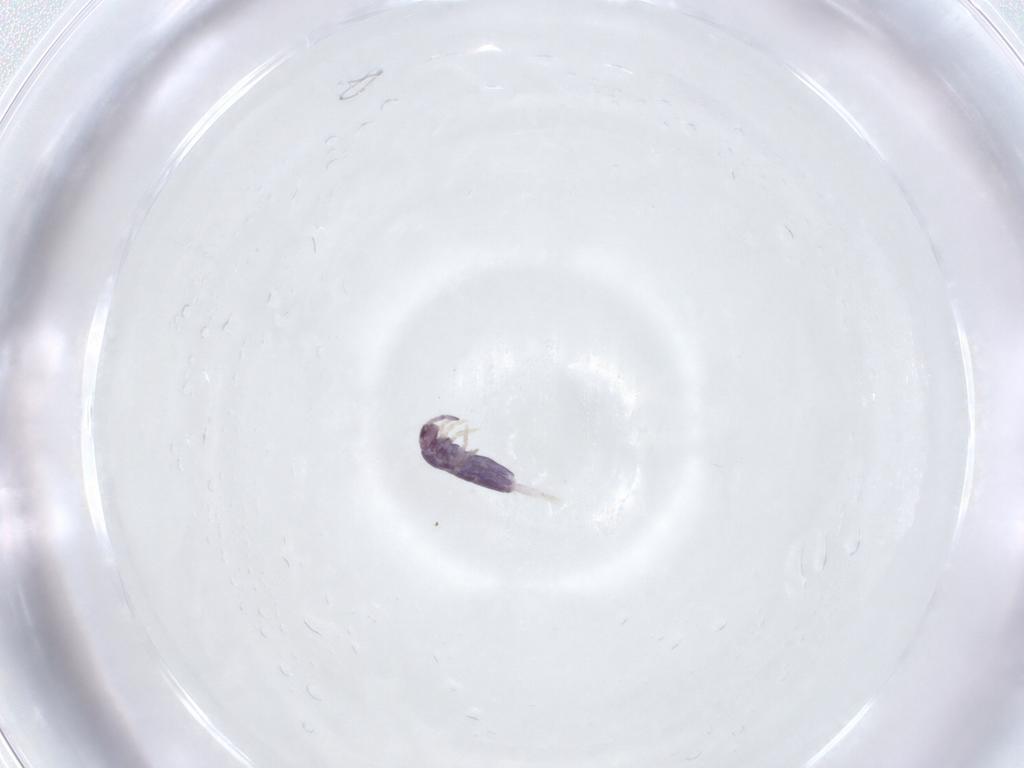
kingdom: Animalia
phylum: Arthropoda
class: Collembola
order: Entomobryomorpha
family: Entomobryidae
